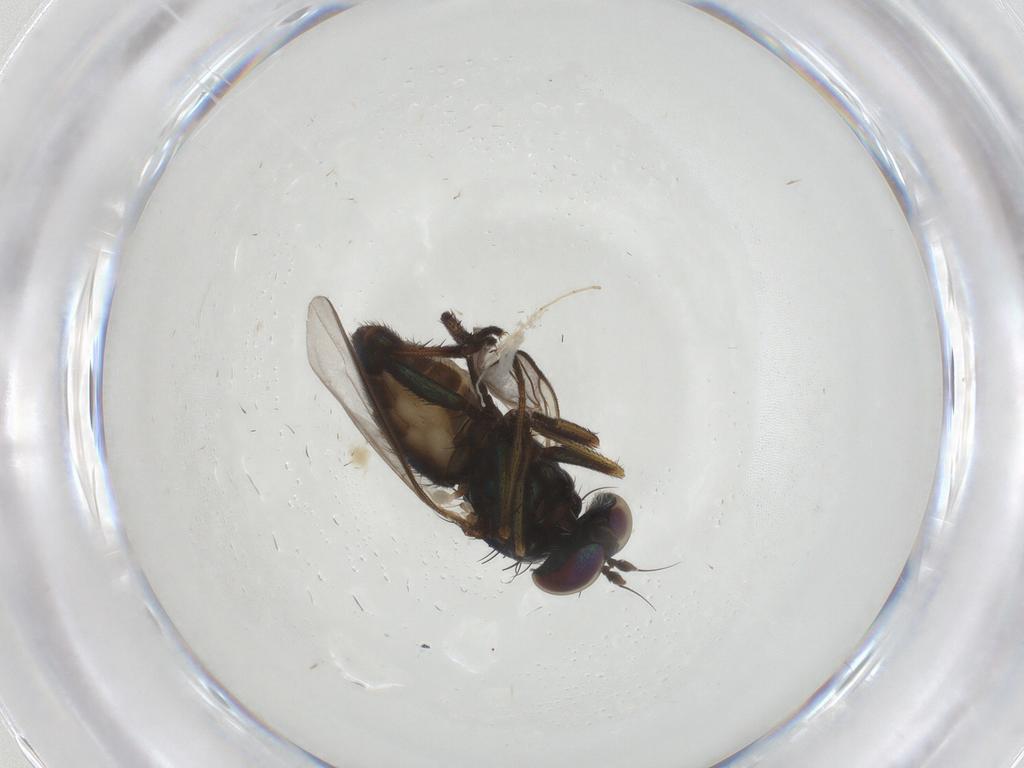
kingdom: Animalia
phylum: Arthropoda
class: Insecta
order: Diptera
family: Dolichopodidae
